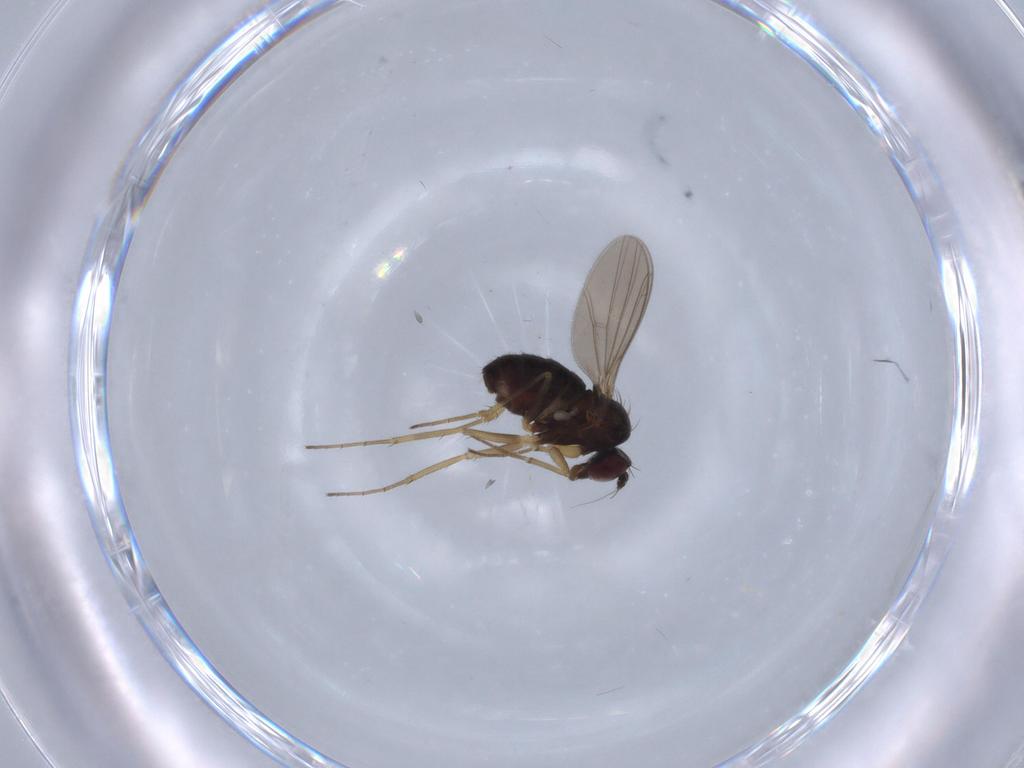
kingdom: Animalia
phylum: Arthropoda
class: Insecta
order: Diptera
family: Dolichopodidae
